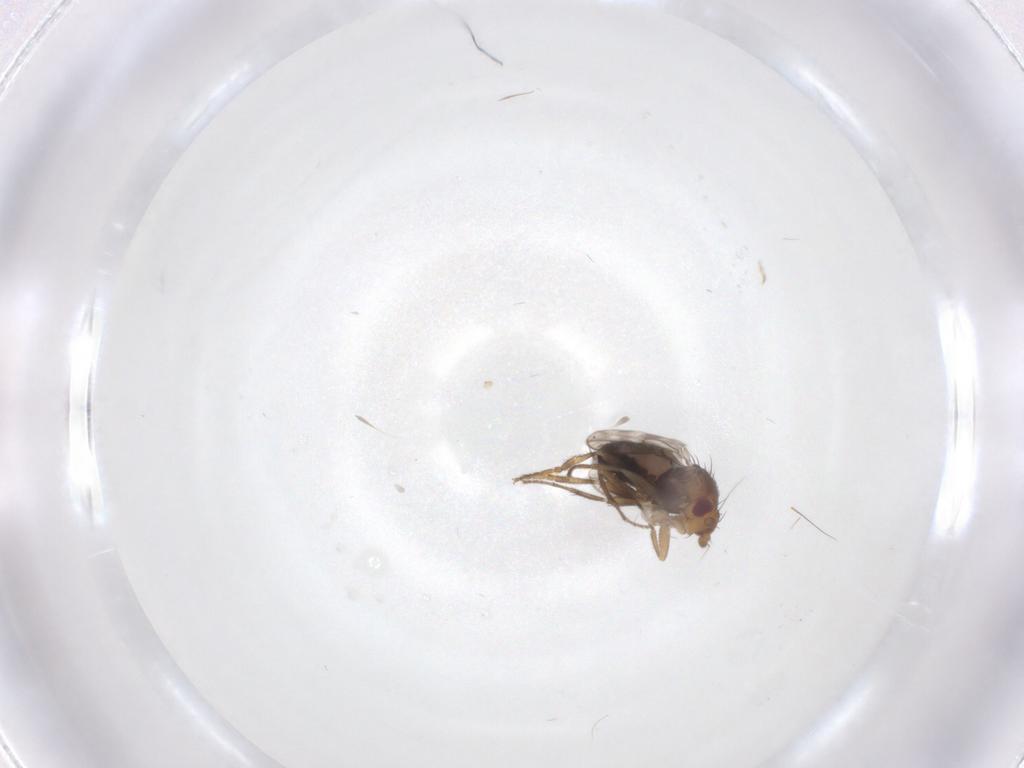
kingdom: Animalia
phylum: Arthropoda
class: Insecta
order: Diptera
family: Sphaeroceridae
